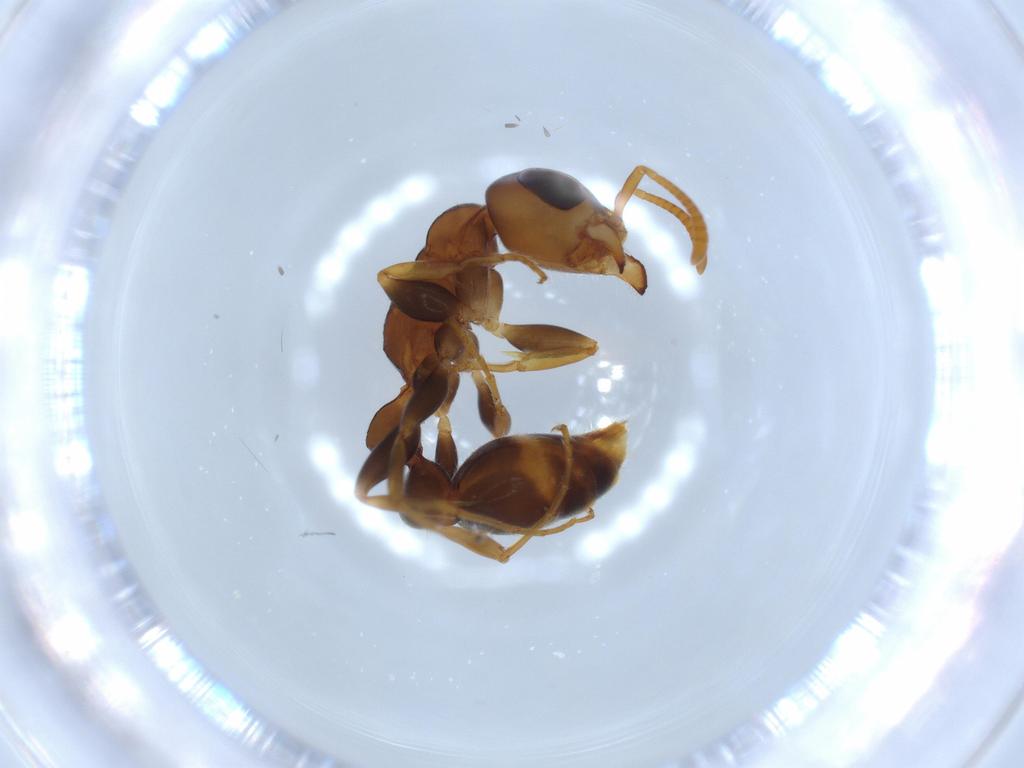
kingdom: Animalia
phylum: Arthropoda
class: Insecta
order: Hymenoptera
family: Formicidae
